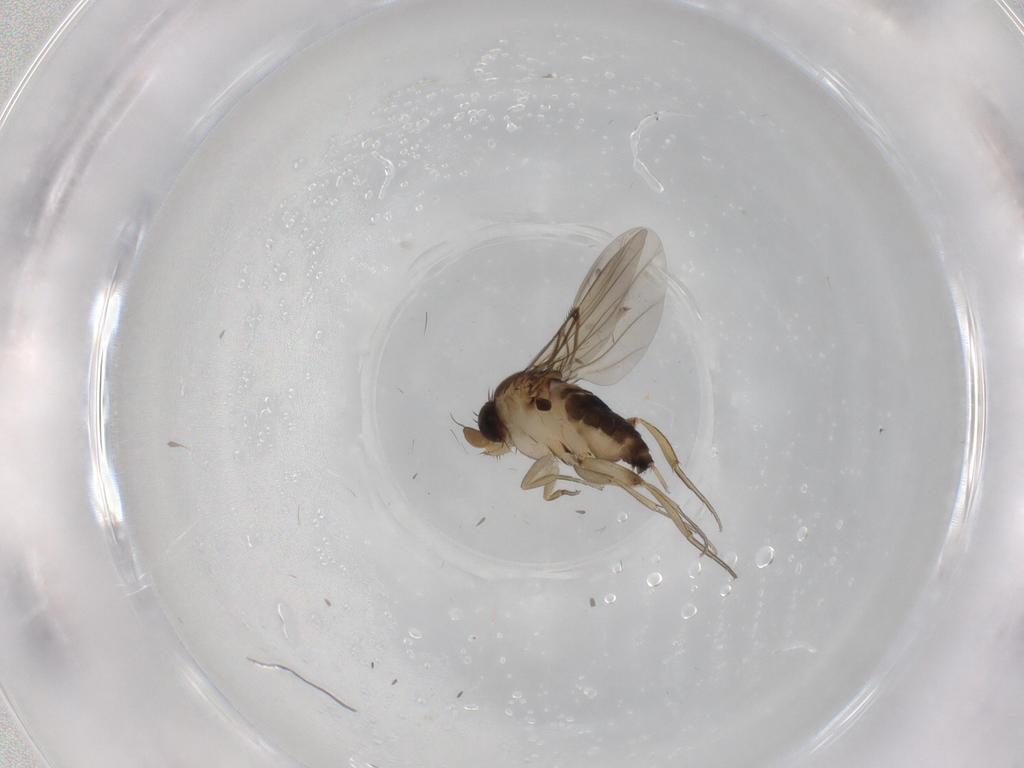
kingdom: Animalia
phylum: Arthropoda
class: Insecta
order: Diptera
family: Phoridae
